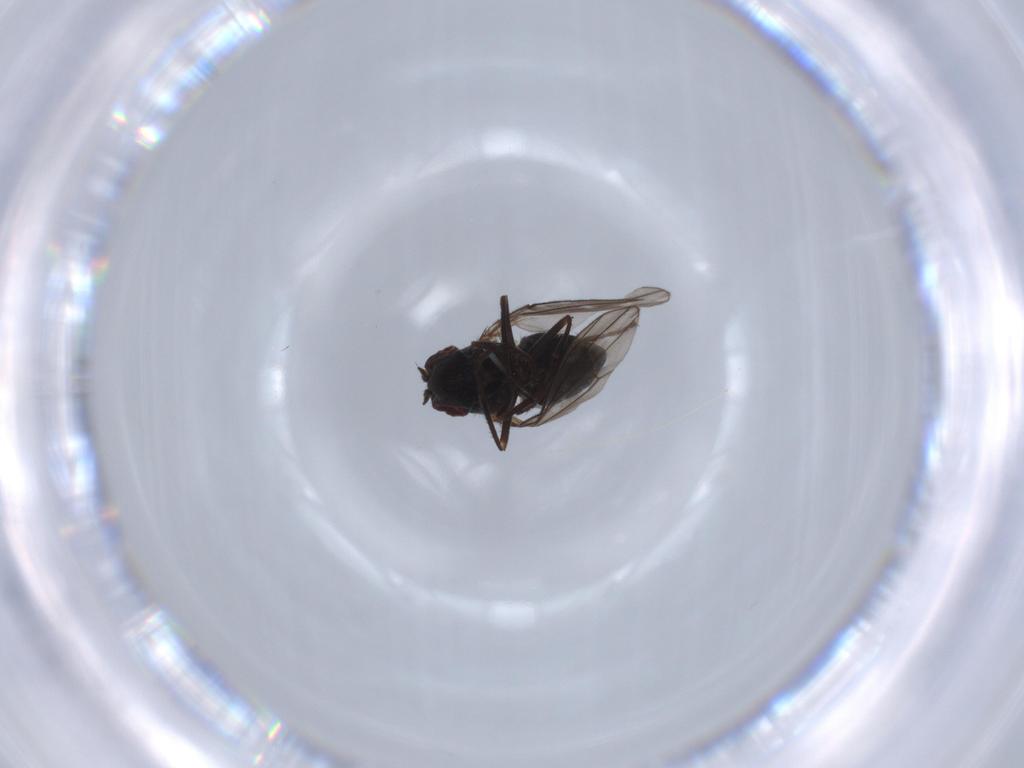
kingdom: Animalia
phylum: Arthropoda
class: Insecta
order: Diptera
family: Ephydridae
